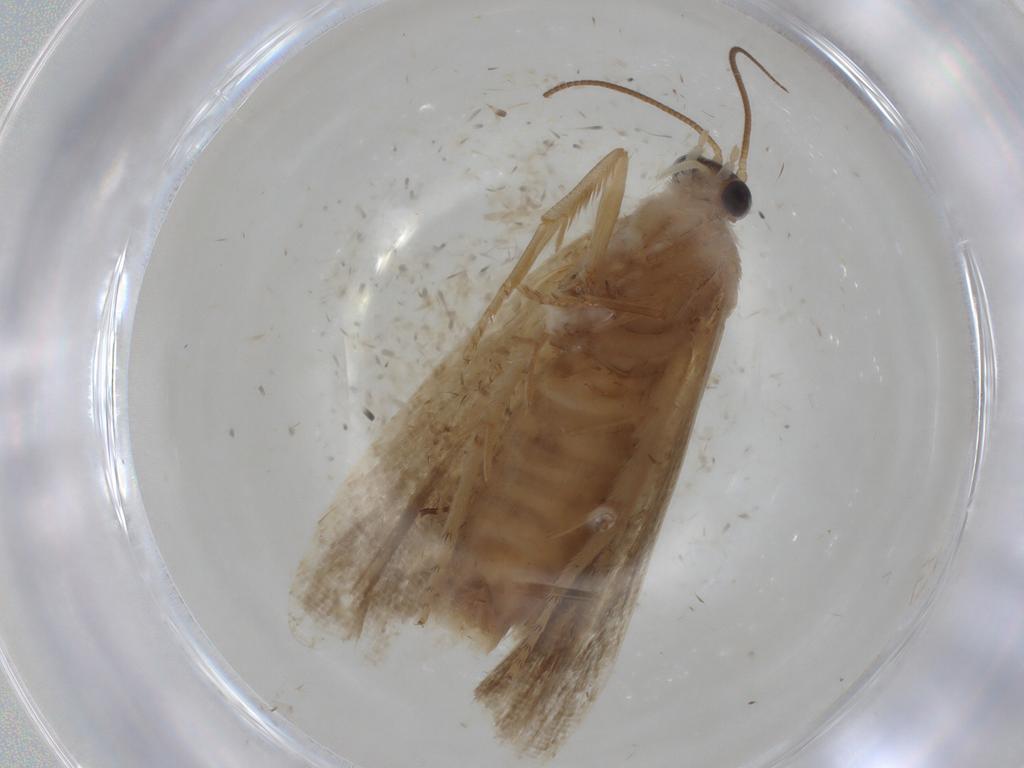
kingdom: Animalia
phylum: Arthropoda
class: Insecta
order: Lepidoptera
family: Tortricidae
